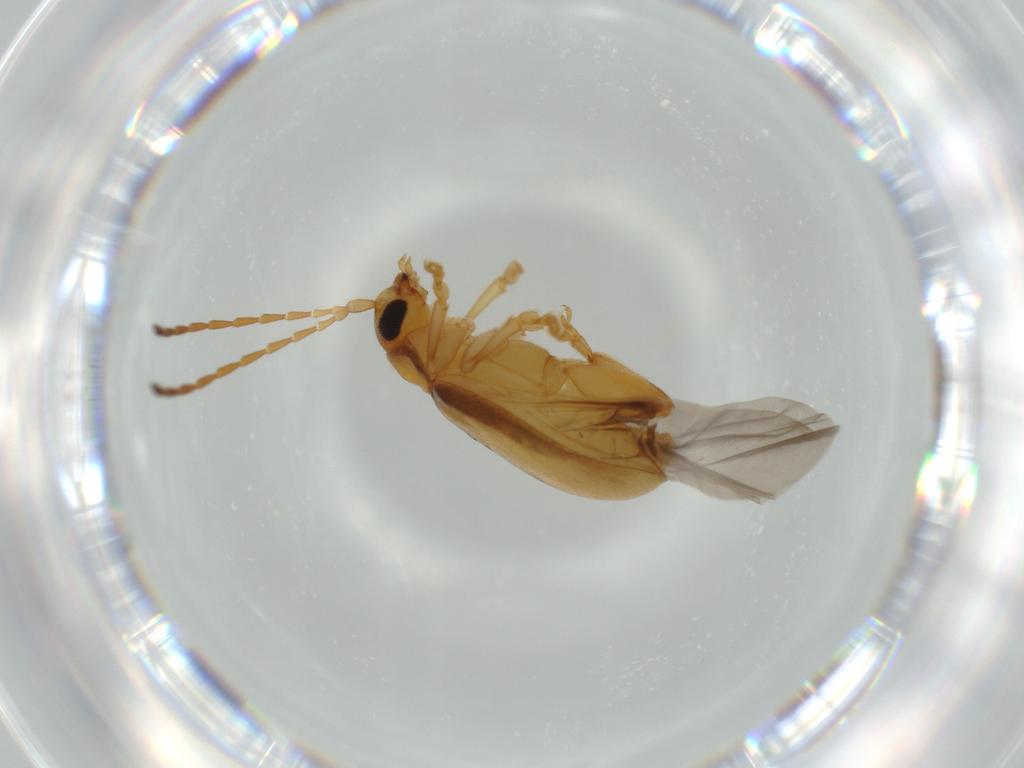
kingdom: Animalia
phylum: Arthropoda
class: Insecta
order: Coleoptera
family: Chrysomelidae
